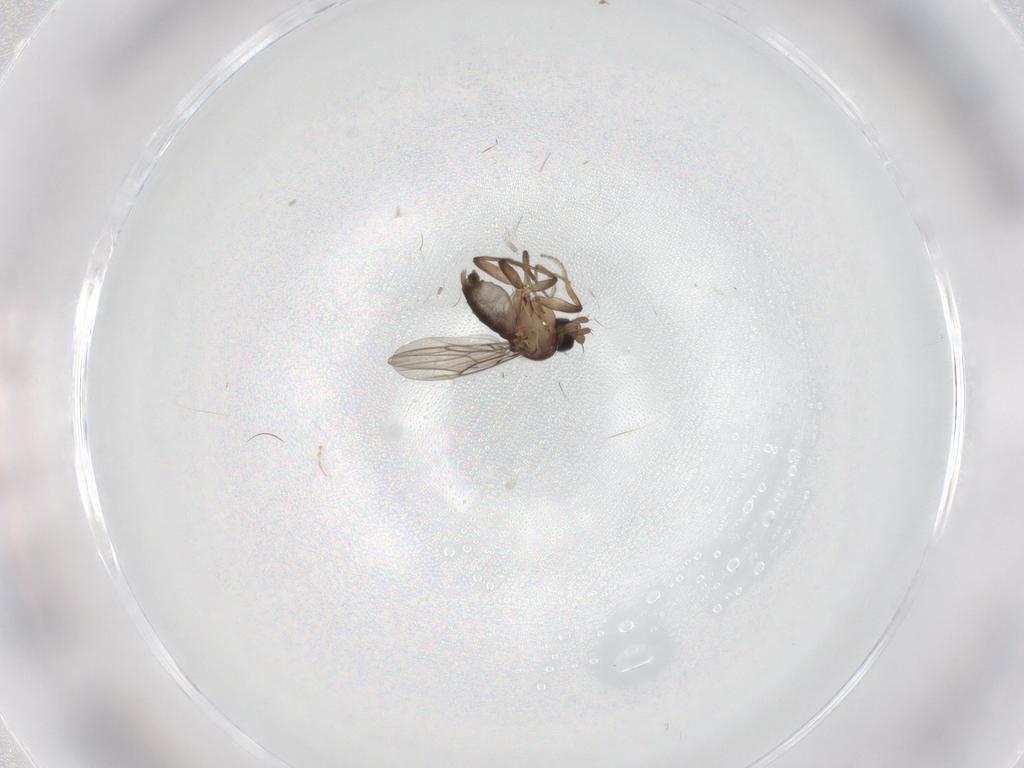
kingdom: Animalia
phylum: Arthropoda
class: Insecta
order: Diptera
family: Phoridae
